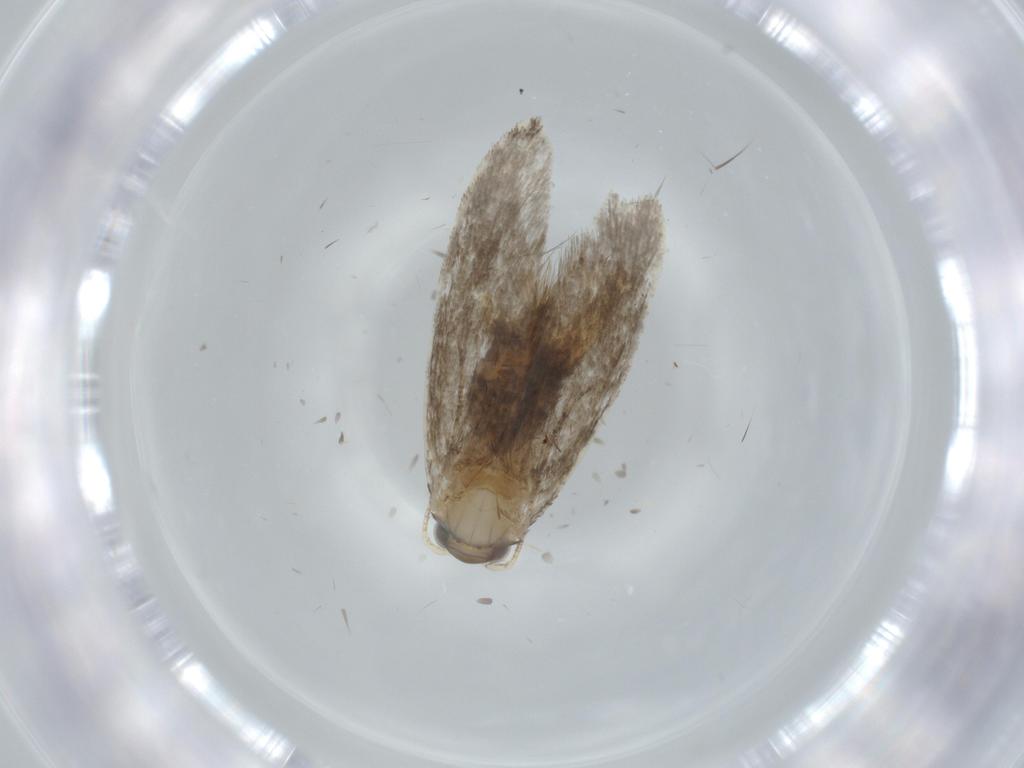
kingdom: Animalia
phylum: Arthropoda
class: Insecta
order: Lepidoptera
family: Tineidae
